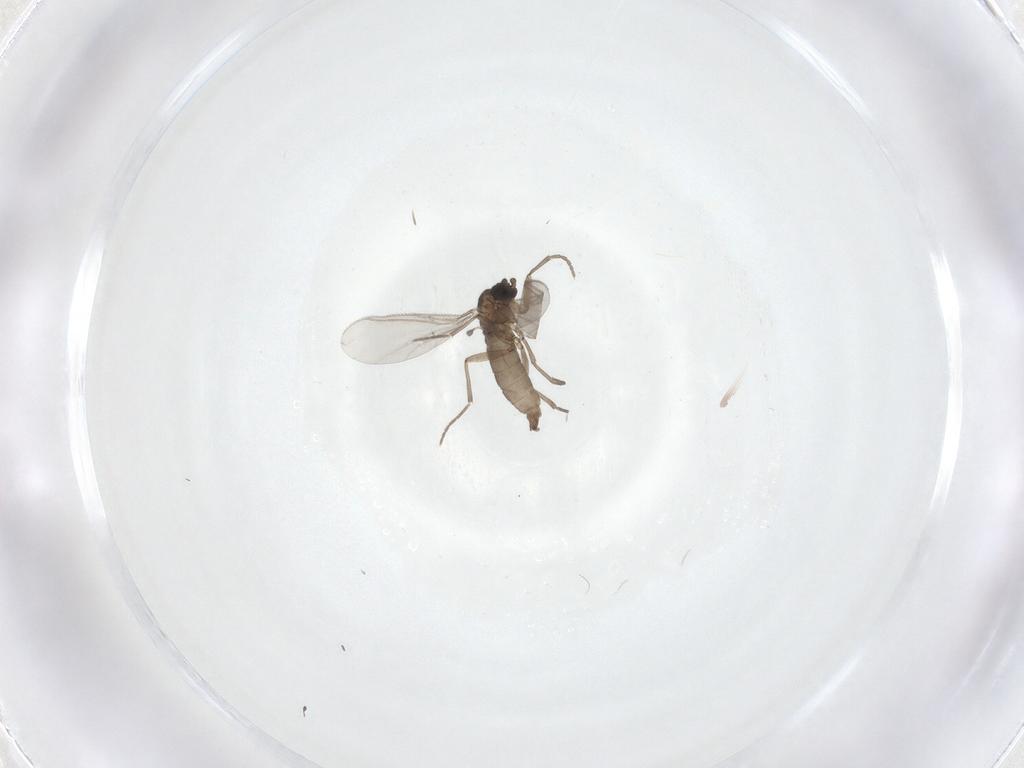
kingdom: Animalia
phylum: Arthropoda
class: Insecta
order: Diptera
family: Sciaridae
